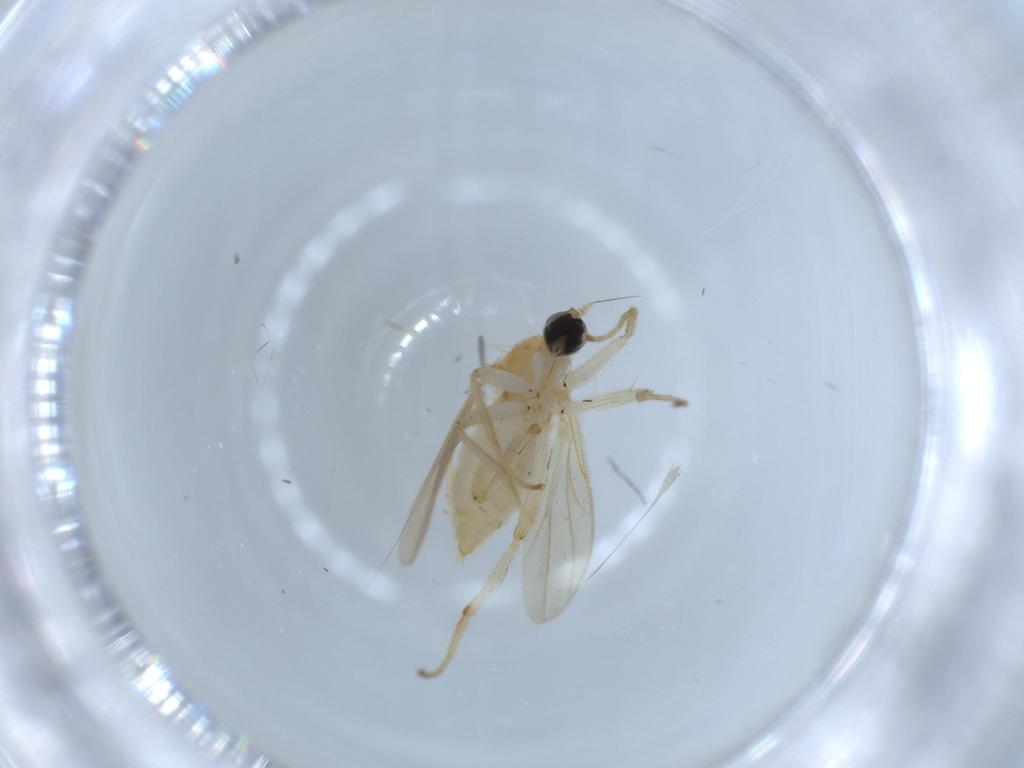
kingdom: Animalia
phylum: Arthropoda
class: Insecta
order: Diptera
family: Hybotidae
